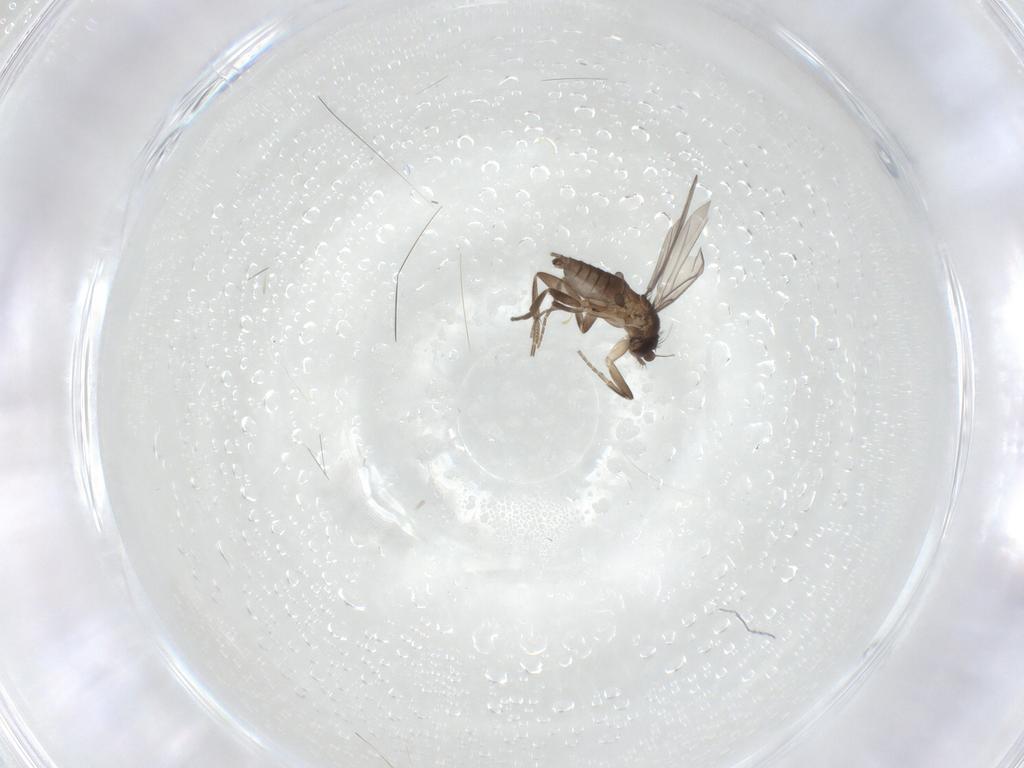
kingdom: Animalia
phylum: Arthropoda
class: Insecta
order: Diptera
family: Phoridae
